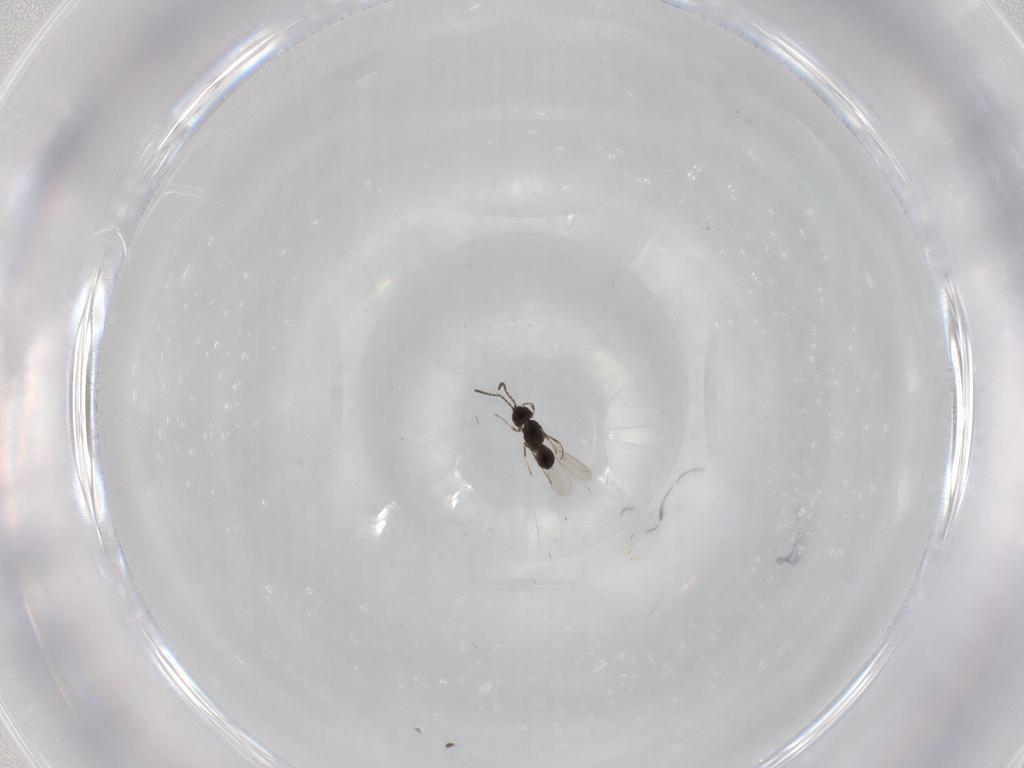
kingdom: Animalia
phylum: Arthropoda
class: Insecta
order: Hymenoptera
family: Scelionidae
